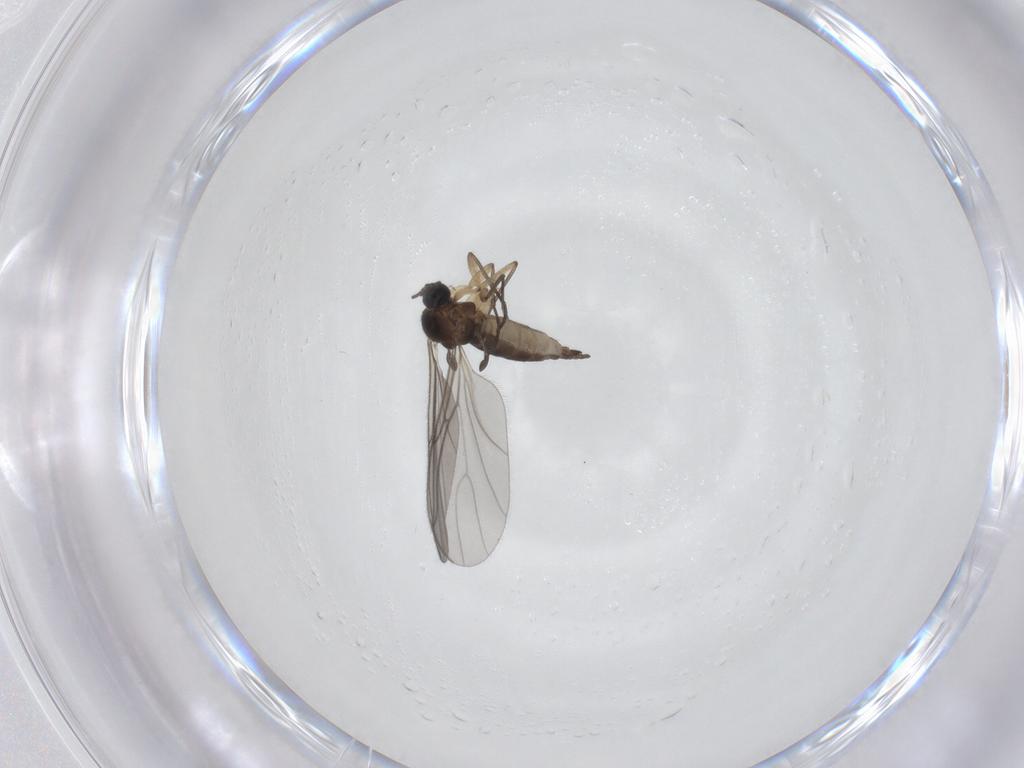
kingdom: Animalia
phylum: Arthropoda
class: Insecta
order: Diptera
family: Sciaridae
